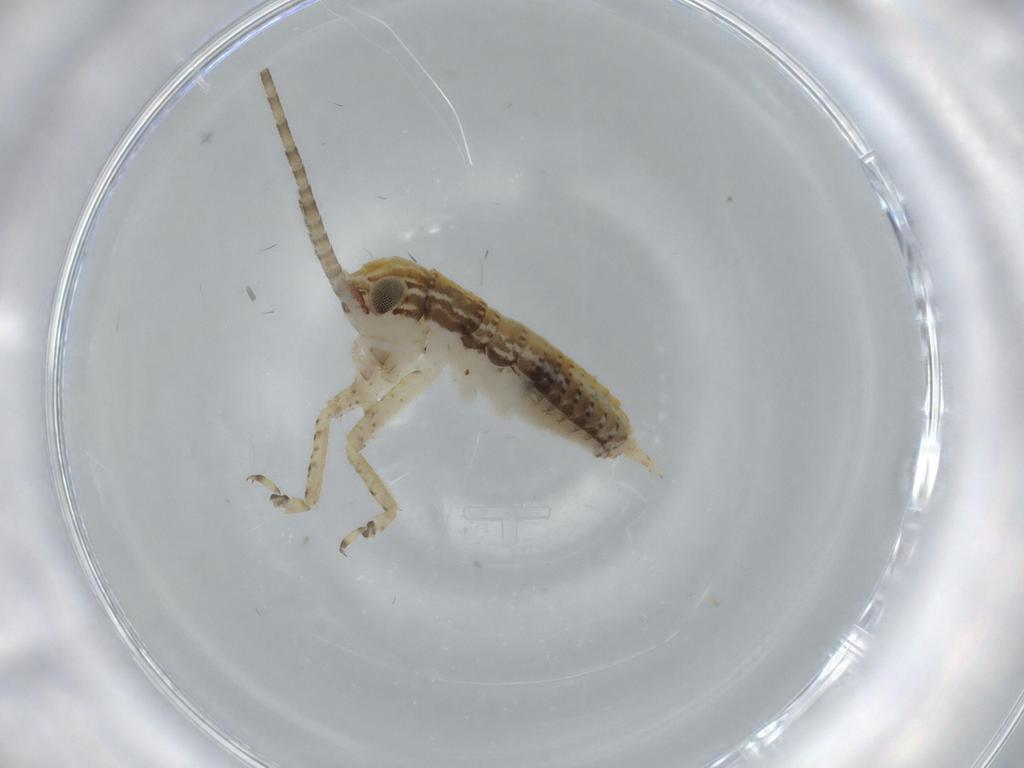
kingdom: Animalia
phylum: Arthropoda
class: Insecta
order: Orthoptera
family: Gryllidae
